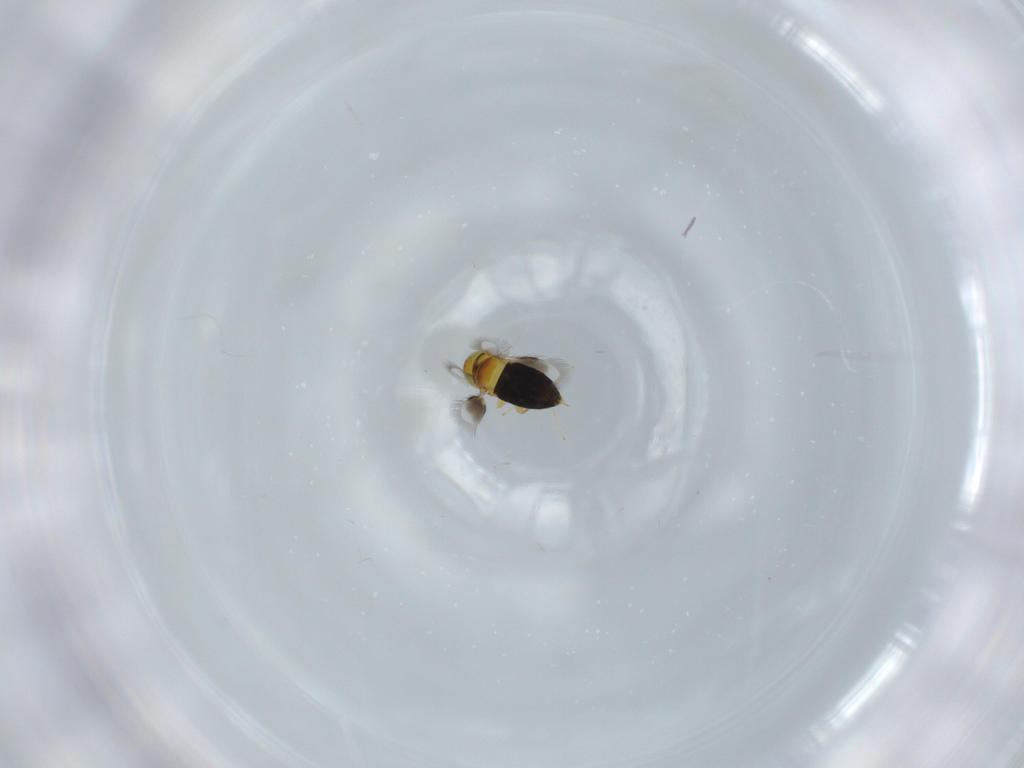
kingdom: Animalia
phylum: Arthropoda
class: Insecta
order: Hymenoptera
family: Signiphoridae
